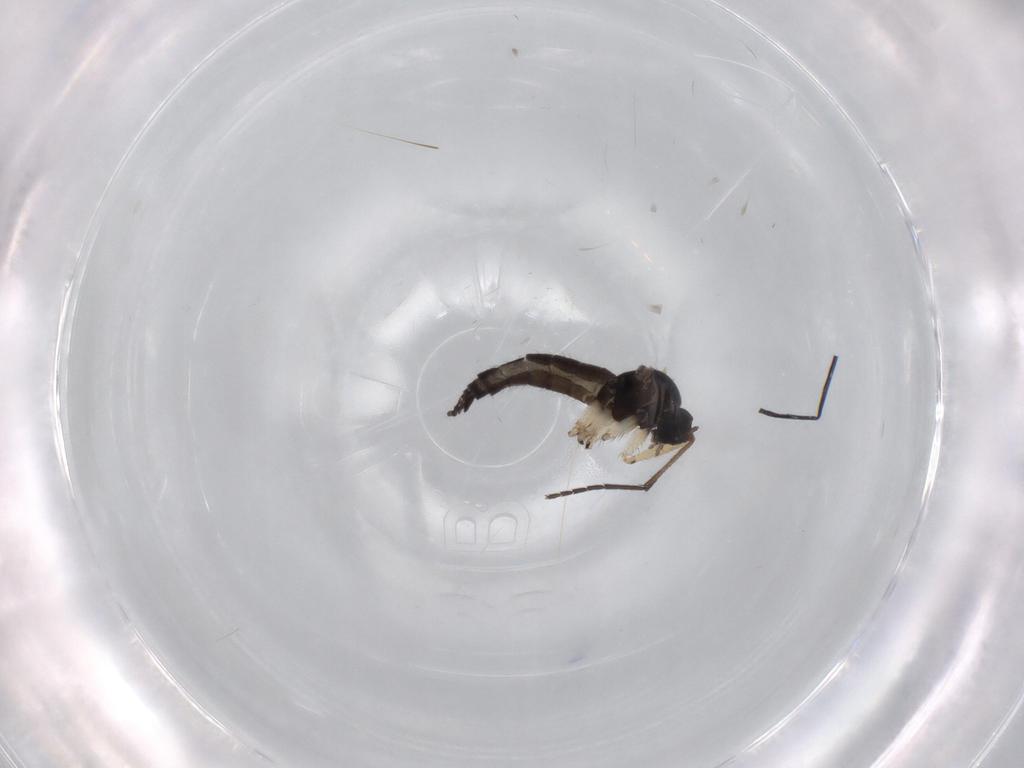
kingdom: Animalia
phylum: Arthropoda
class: Insecta
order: Diptera
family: Sciaridae
